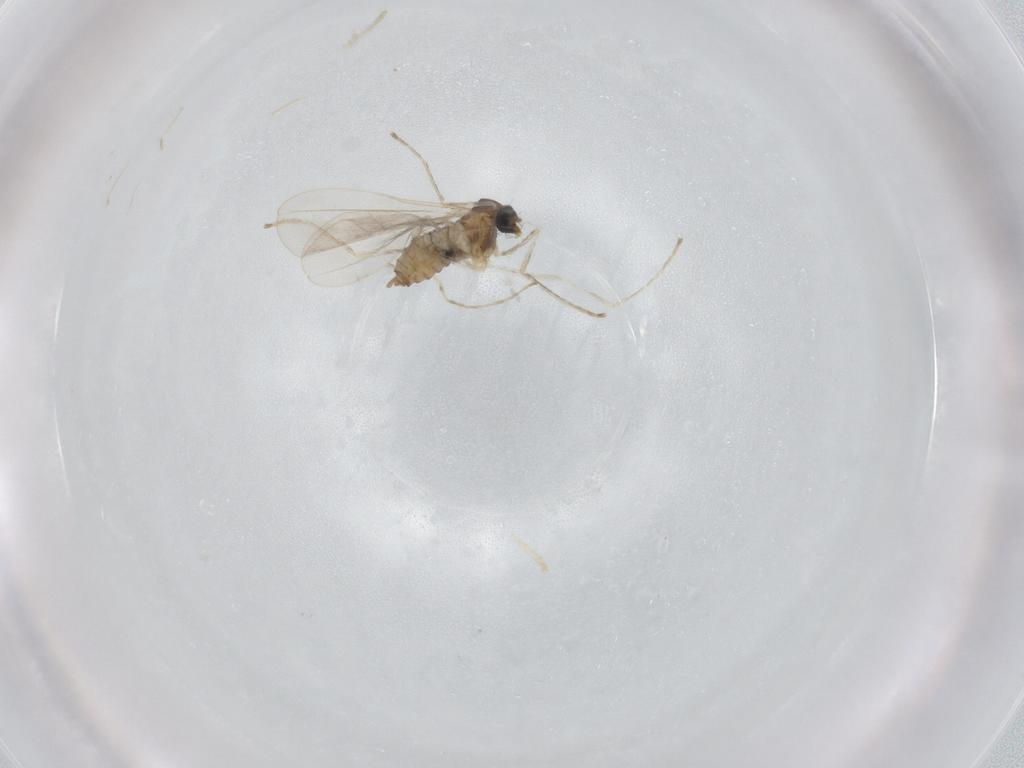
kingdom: Animalia
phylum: Arthropoda
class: Insecta
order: Diptera
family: Cecidomyiidae
